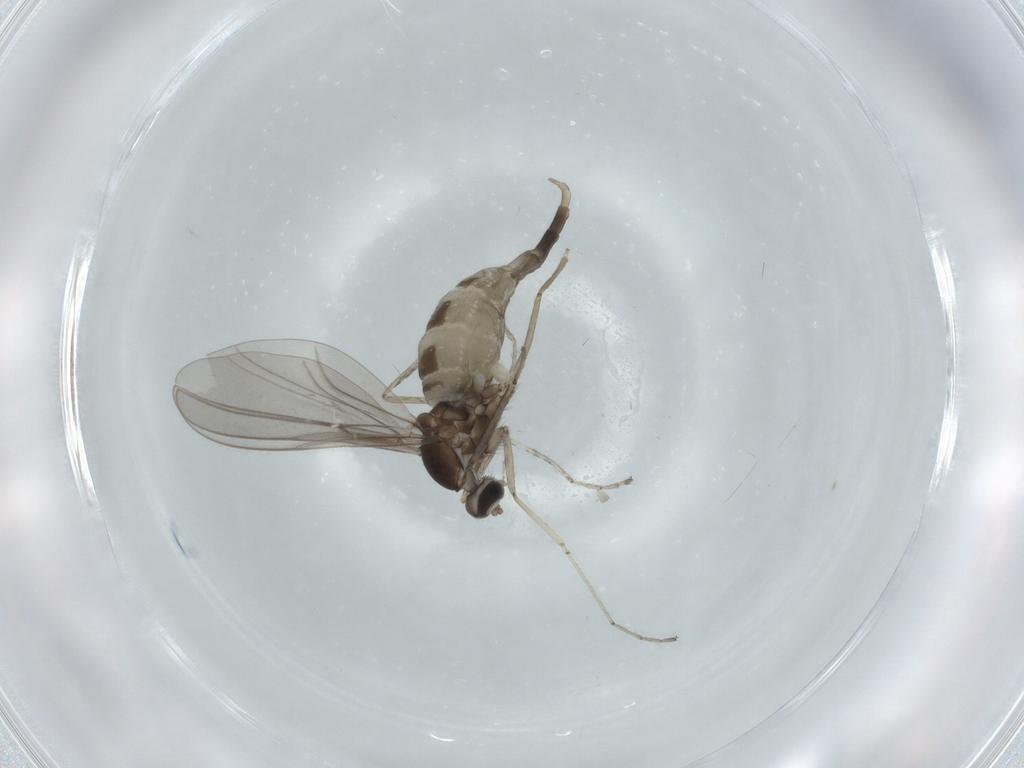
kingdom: Animalia
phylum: Arthropoda
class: Insecta
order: Diptera
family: Cecidomyiidae
